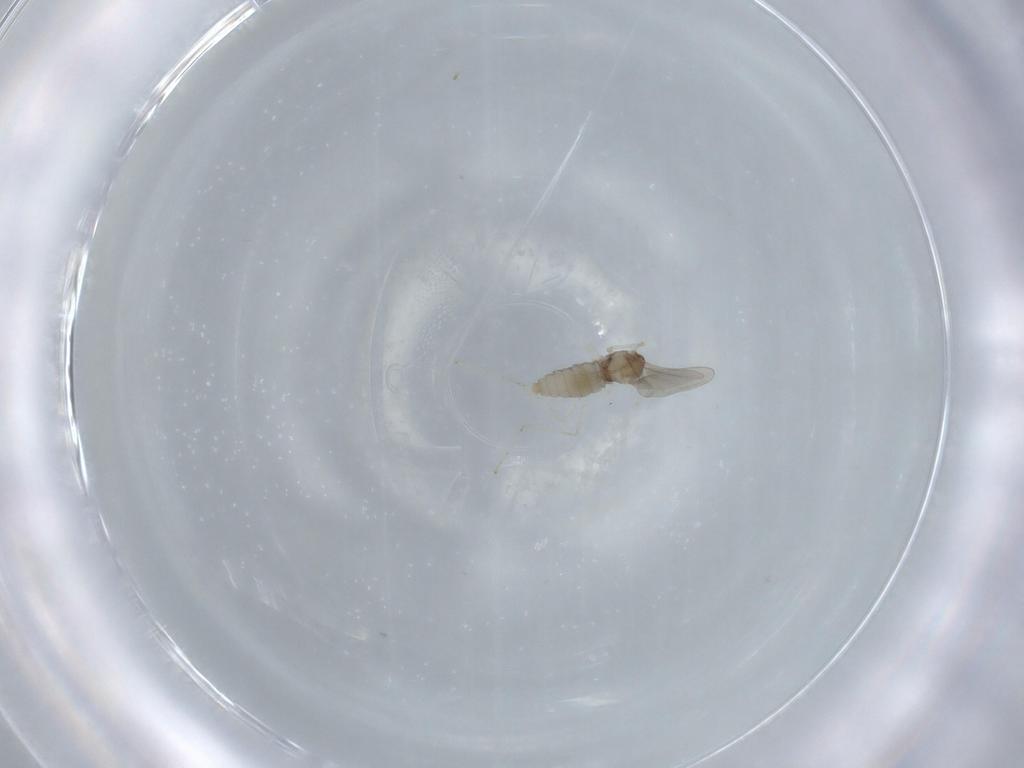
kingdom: Animalia
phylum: Arthropoda
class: Insecta
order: Diptera
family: Cecidomyiidae
